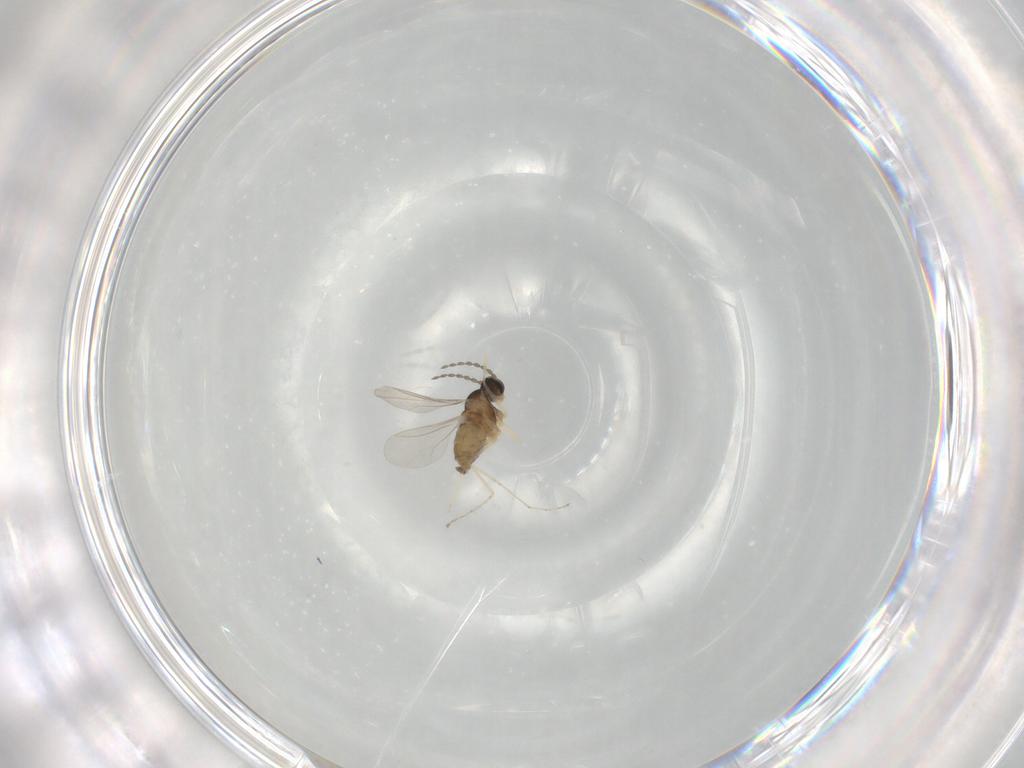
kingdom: Animalia
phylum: Arthropoda
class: Insecta
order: Diptera
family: Cecidomyiidae
